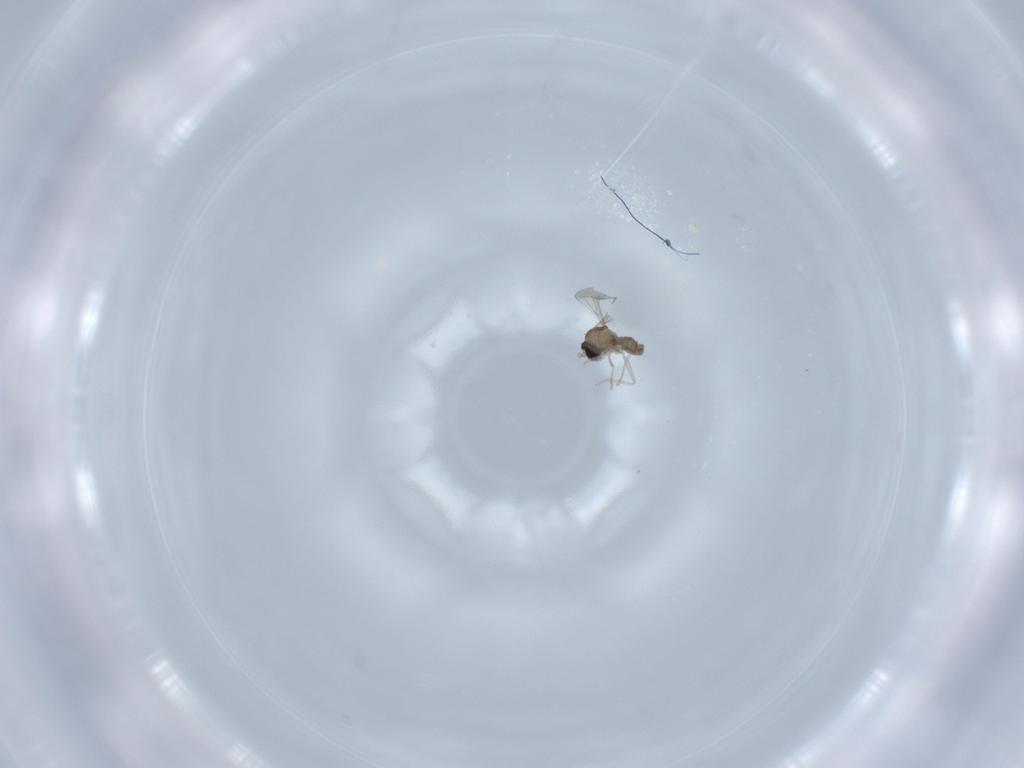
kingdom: Animalia
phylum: Arthropoda
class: Insecta
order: Diptera
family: Cecidomyiidae
